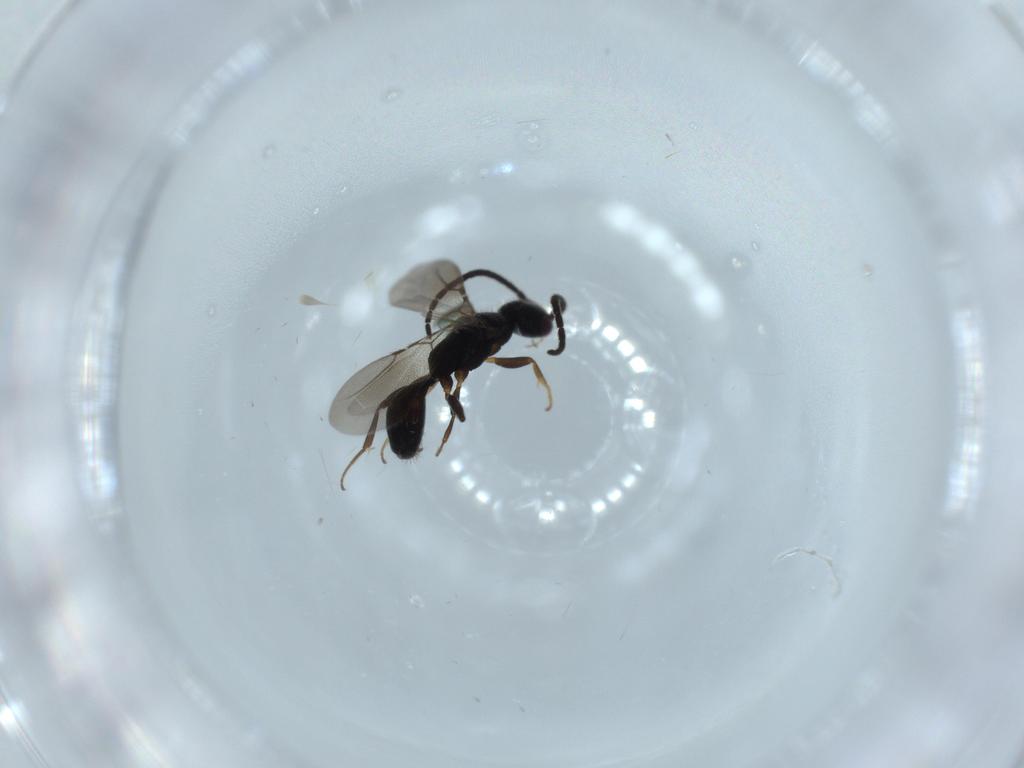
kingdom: Animalia
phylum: Arthropoda
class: Insecta
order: Hymenoptera
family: Bethylidae
